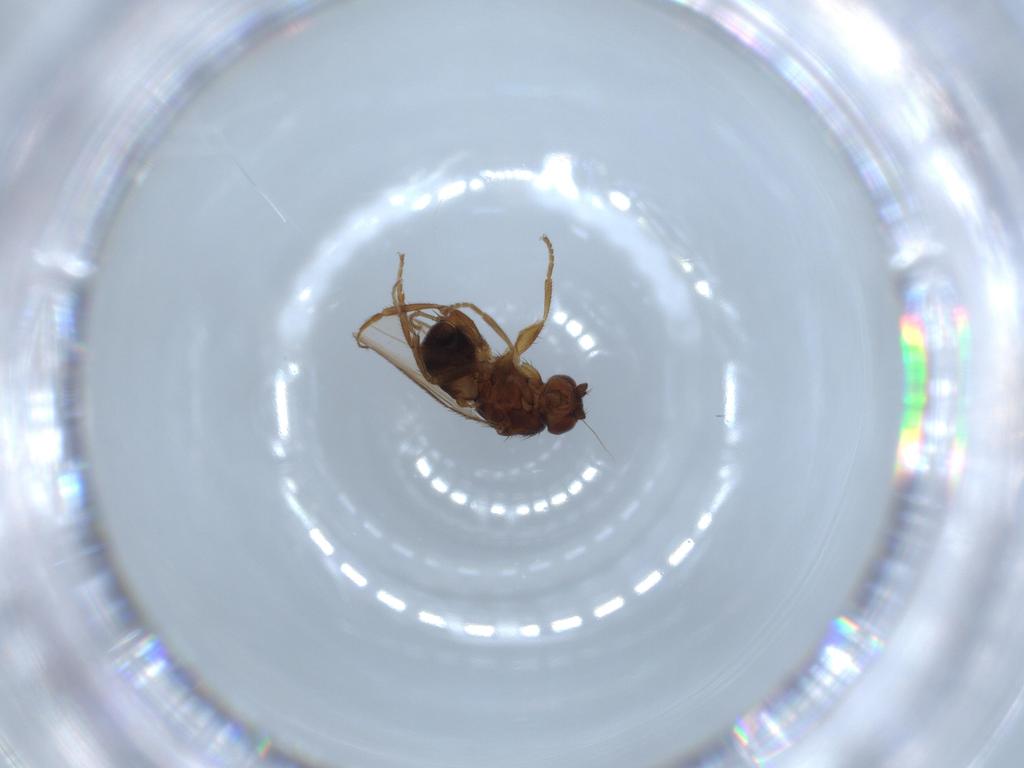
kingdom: Animalia
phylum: Arthropoda
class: Insecta
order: Diptera
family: Sphaeroceridae
